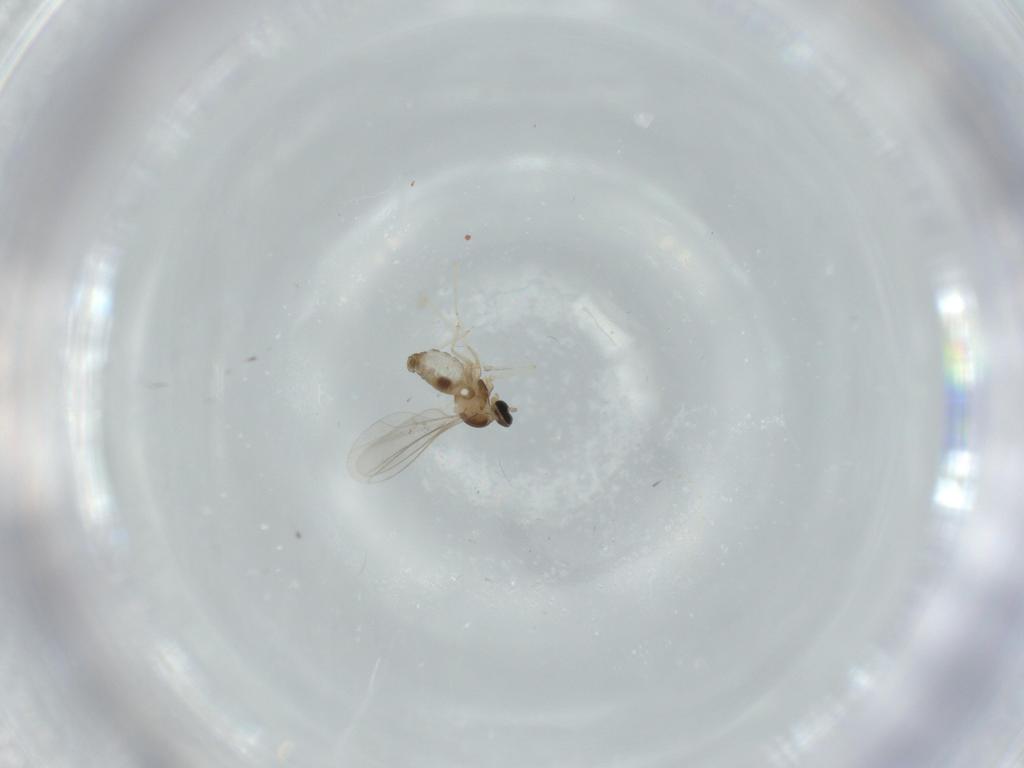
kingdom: Animalia
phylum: Arthropoda
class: Insecta
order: Diptera
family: Cecidomyiidae
